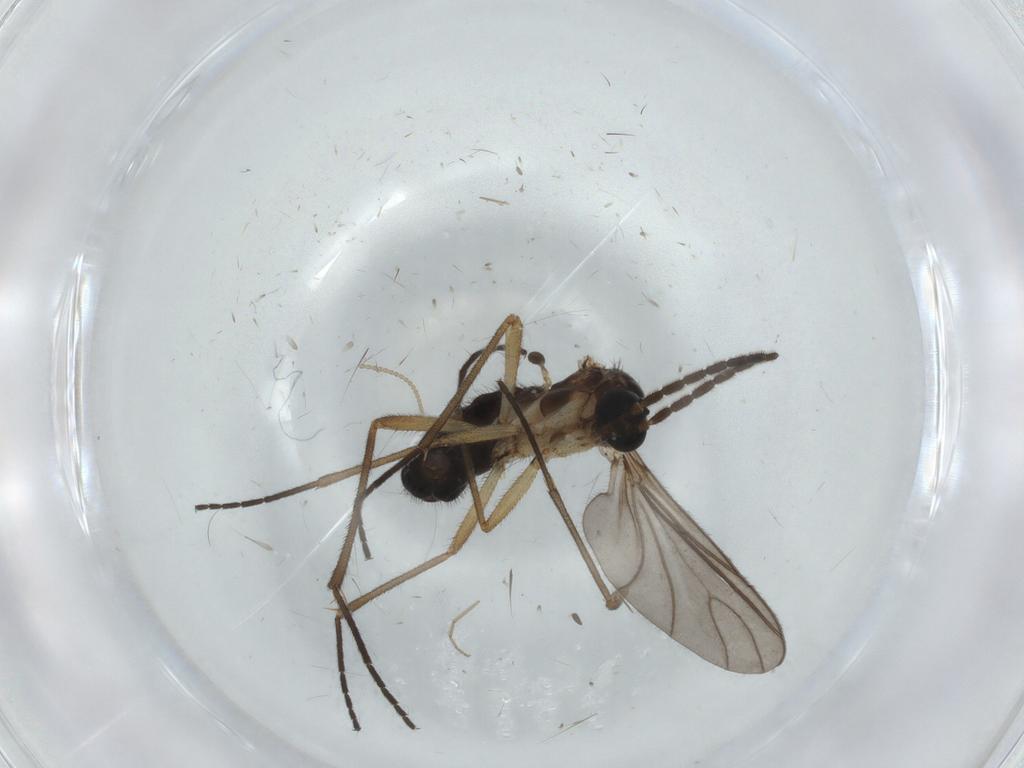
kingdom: Animalia
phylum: Arthropoda
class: Insecta
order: Diptera
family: Sciaridae
